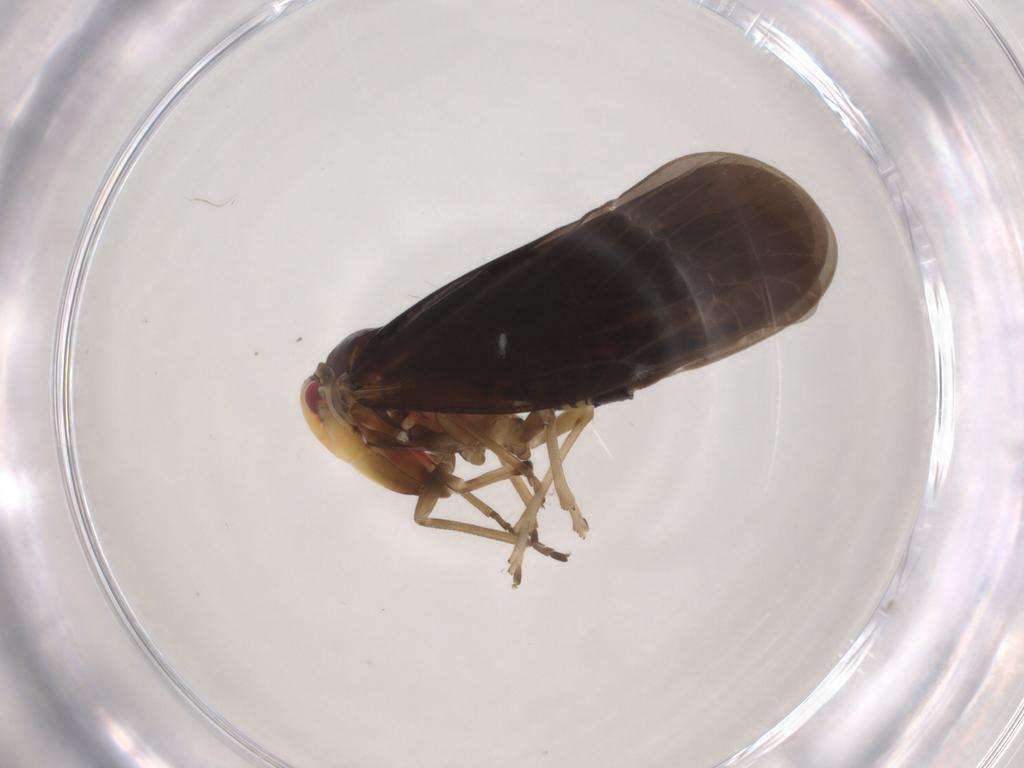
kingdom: Animalia
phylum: Arthropoda
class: Insecta
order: Hemiptera
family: Derbidae
